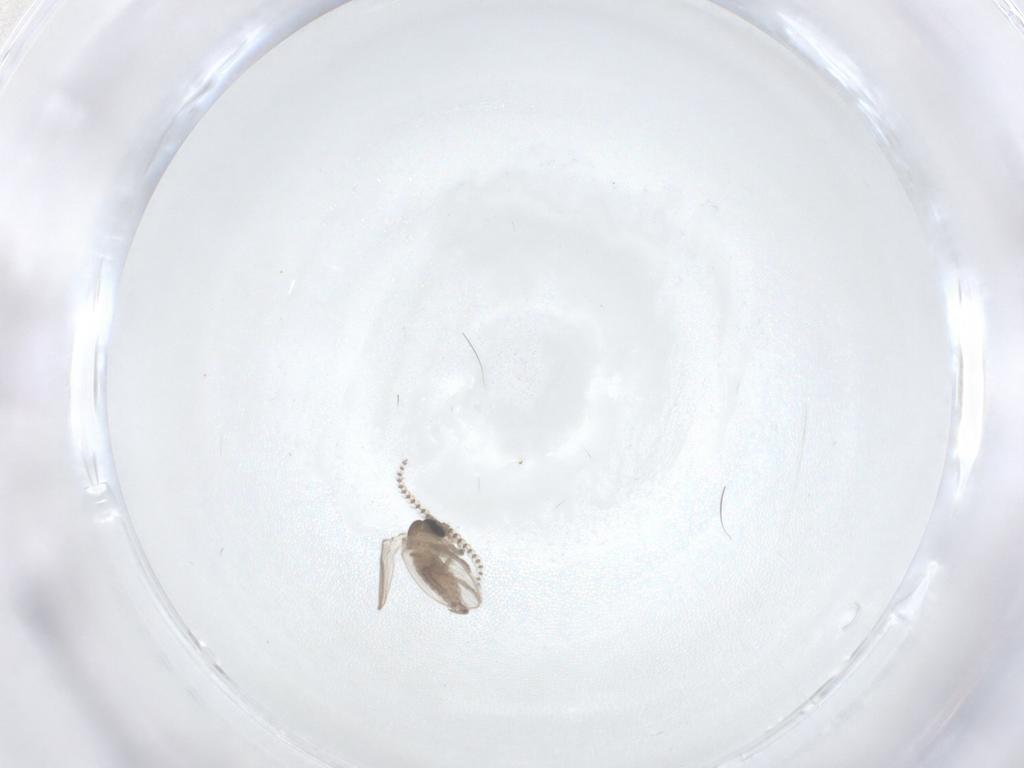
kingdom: Animalia
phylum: Arthropoda
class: Insecta
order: Diptera
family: Psychodidae
